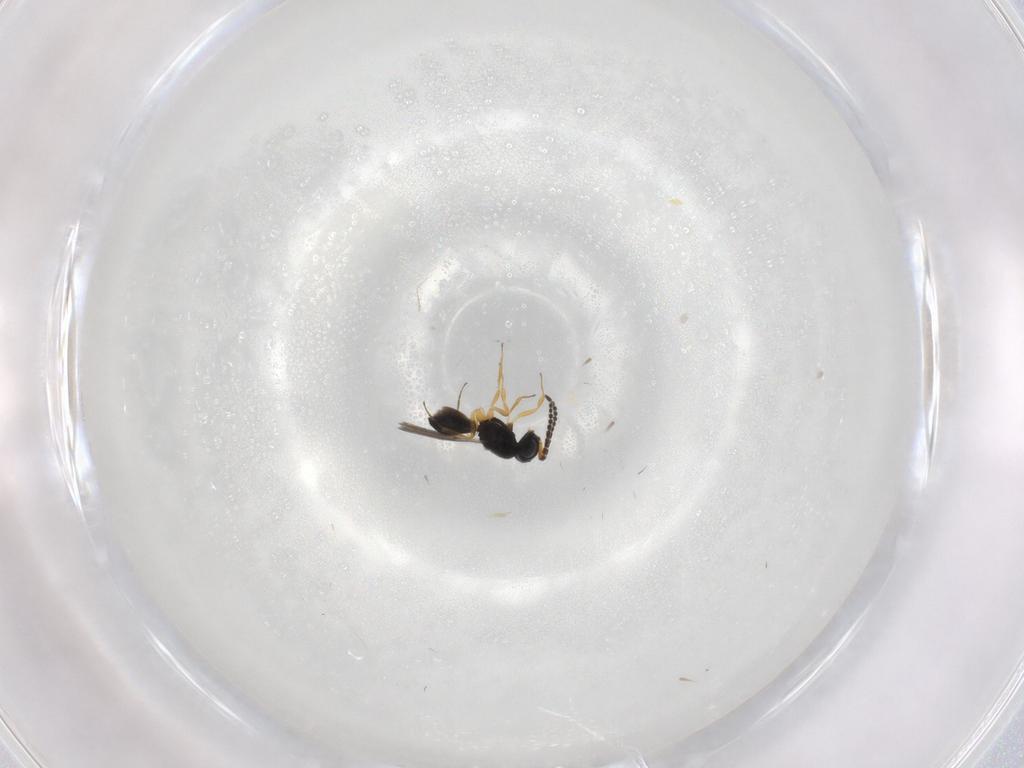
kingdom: Animalia
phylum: Arthropoda
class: Insecta
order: Hymenoptera
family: Scelionidae
